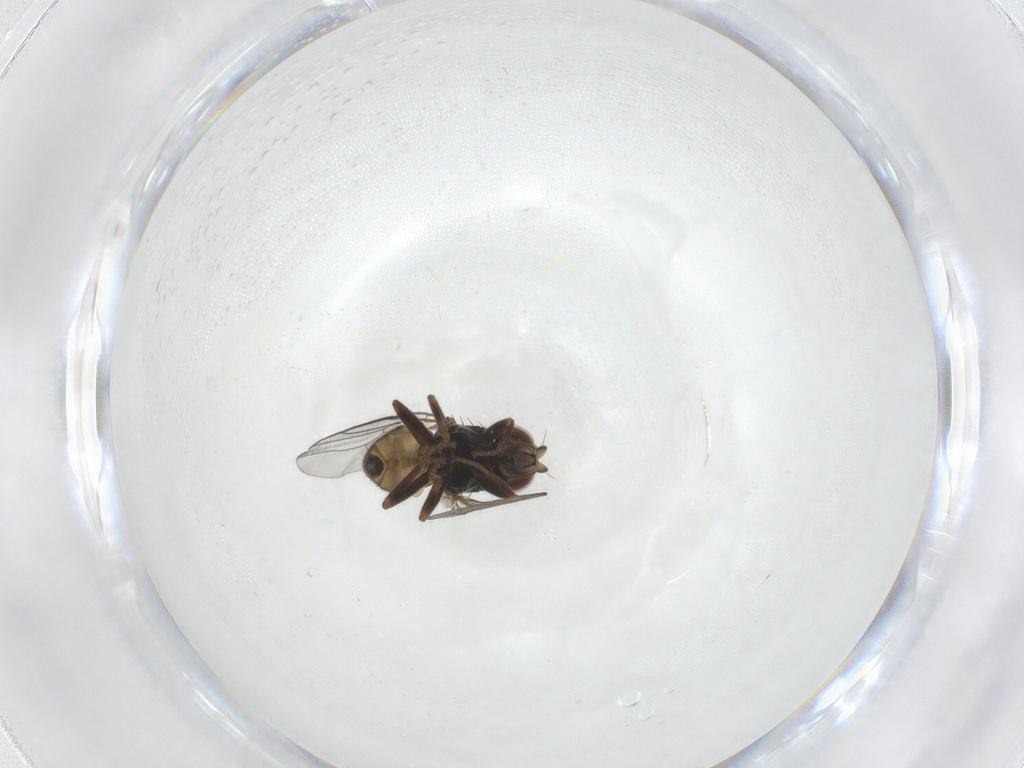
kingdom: Animalia
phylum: Arthropoda
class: Insecta
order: Diptera
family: Chloropidae
